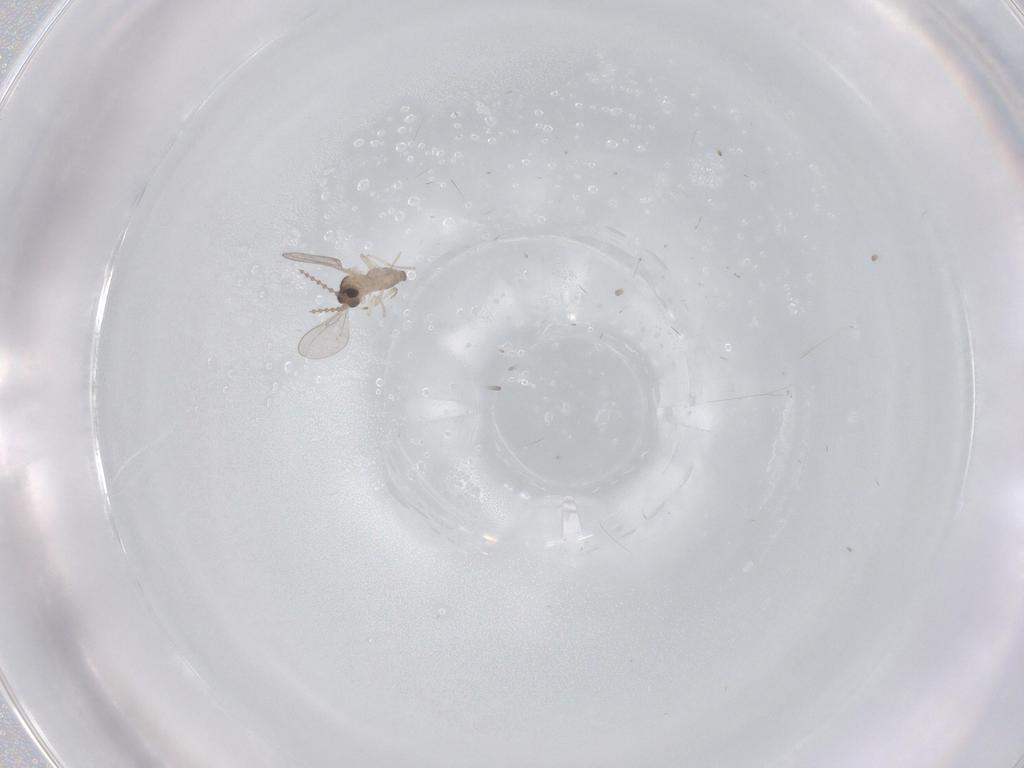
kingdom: Animalia
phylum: Arthropoda
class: Insecta
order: Diptera
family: Cecidomyiidae
